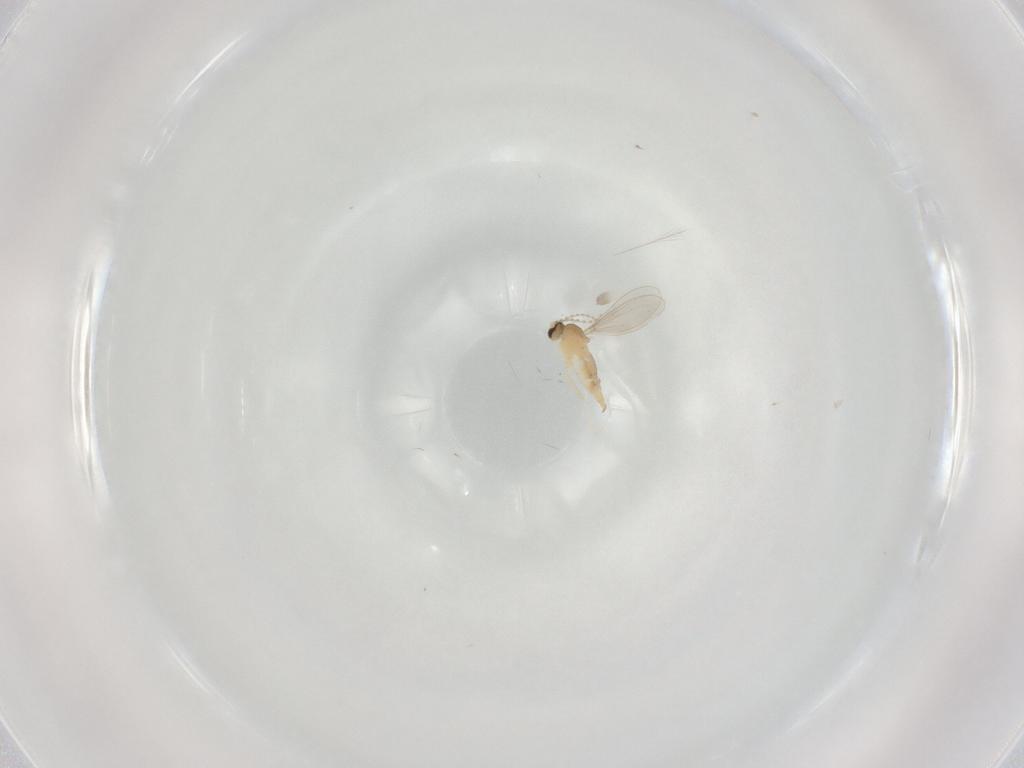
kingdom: Animalia
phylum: Arthropoda
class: Insecta
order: Diptera
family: Cecidomyiidae
